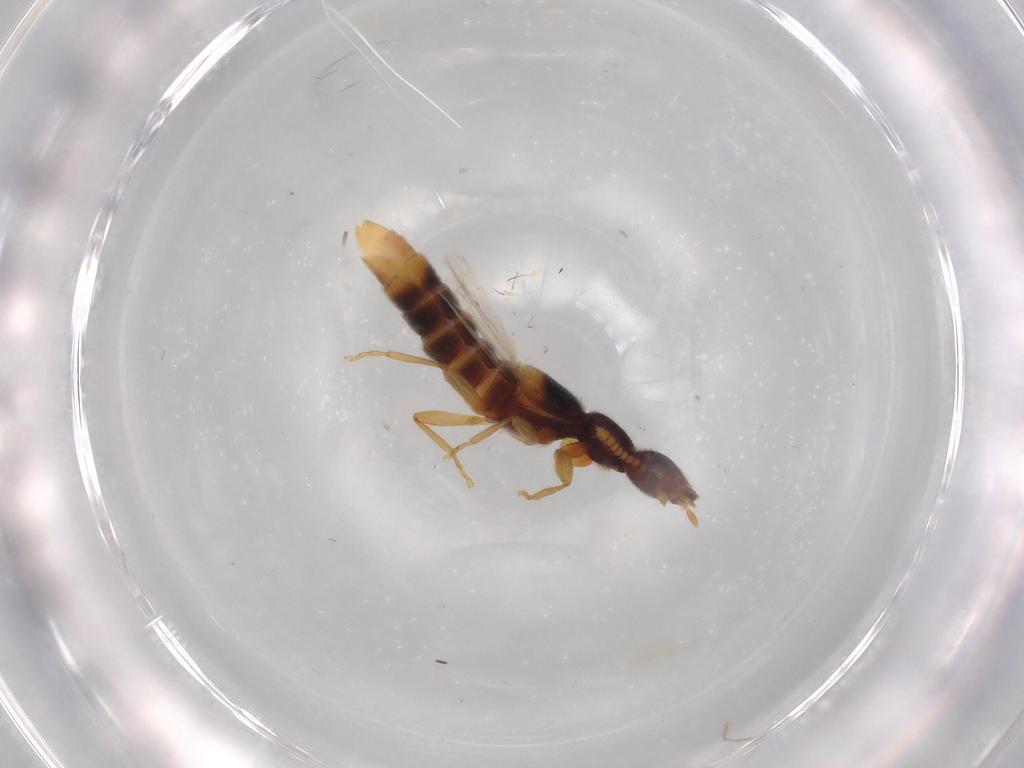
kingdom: Animalia
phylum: Arthropoda
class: Insecta
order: Coleoptera
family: Staphylinidae
